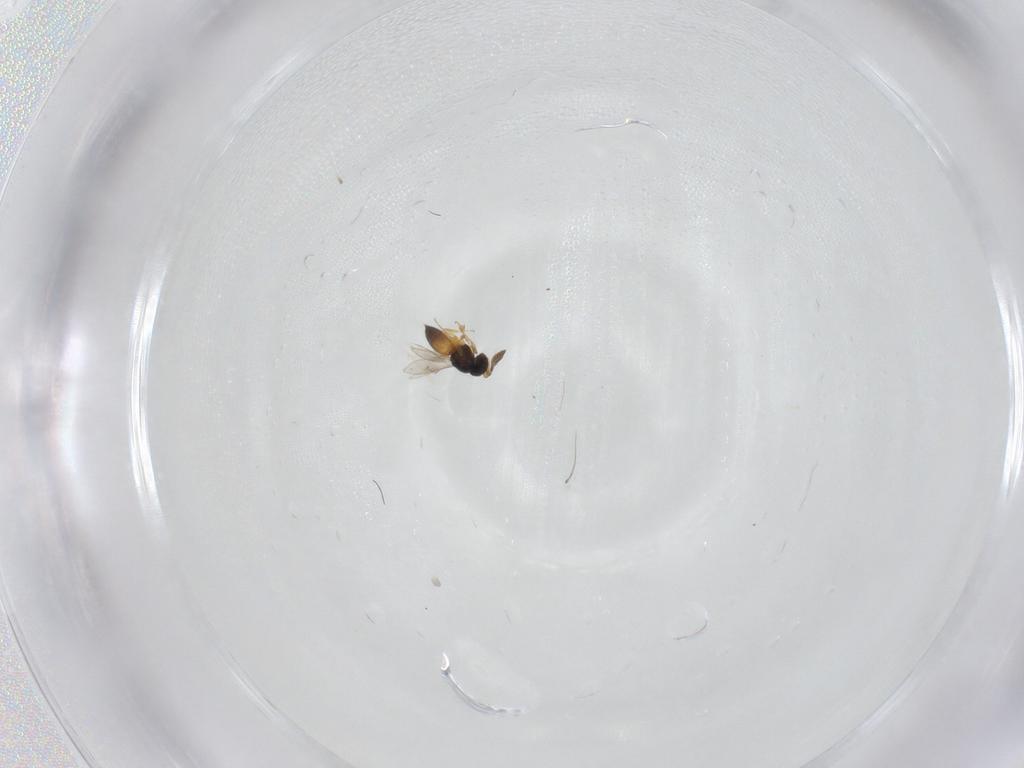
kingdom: Animalia
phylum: Arthropoda
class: Insecta
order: Hymenoptera
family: Scelionidae
